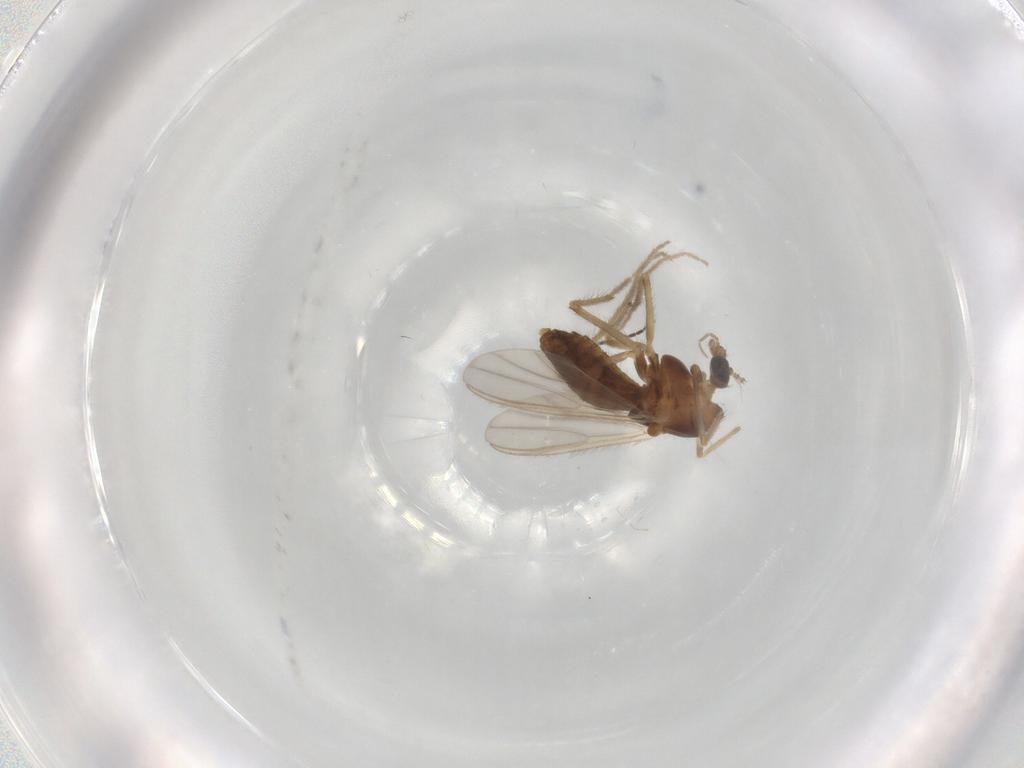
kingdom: Animalia
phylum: Arthropoda
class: Insecta
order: Diptera
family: Chironomidae
